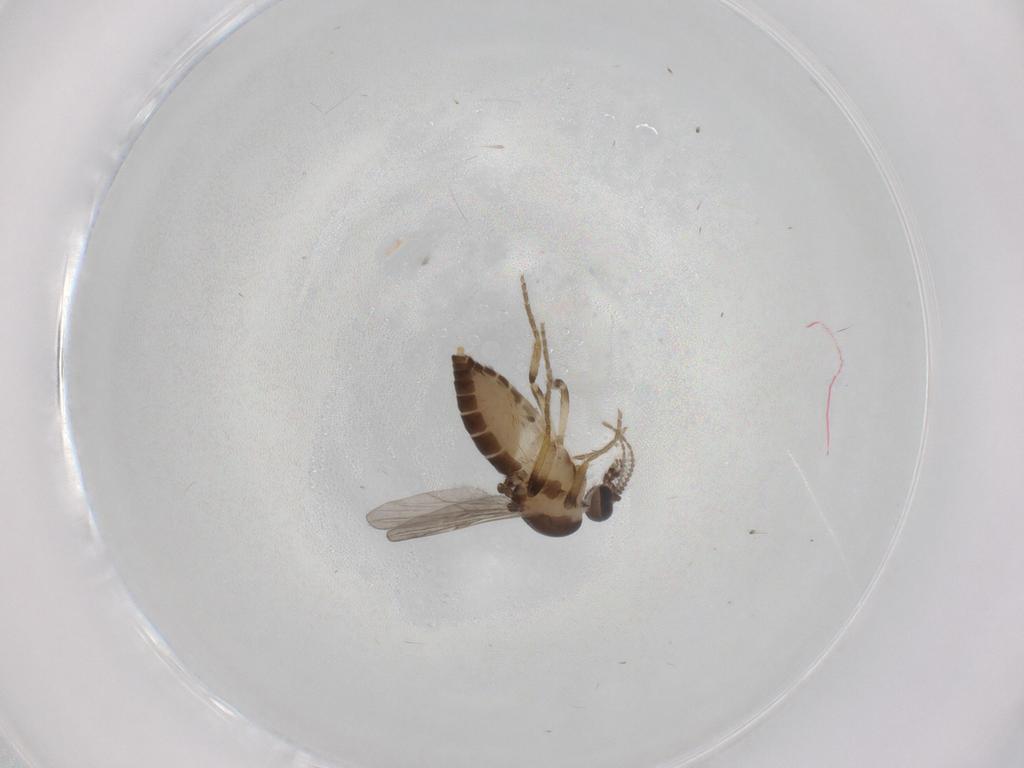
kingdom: Animalia
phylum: Arthropoda
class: Insecta
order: Diptera
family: Ceratopogonidae
